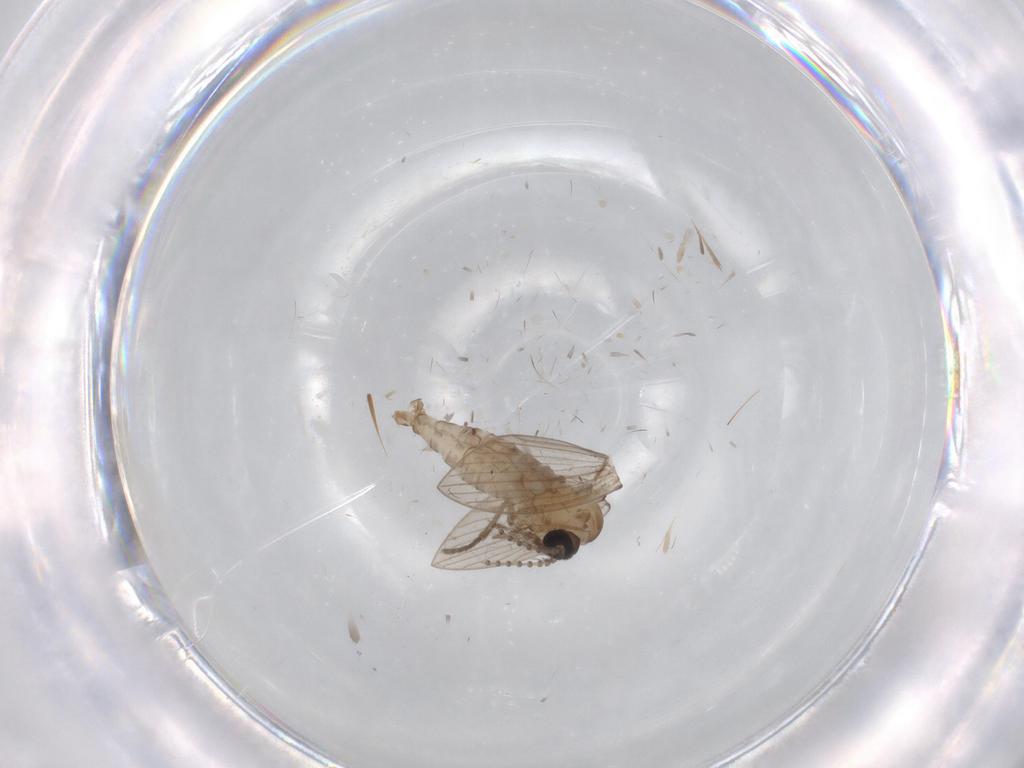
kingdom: Animalia
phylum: Arthropoda
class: Insecta
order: Diptera
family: Psychodidae
